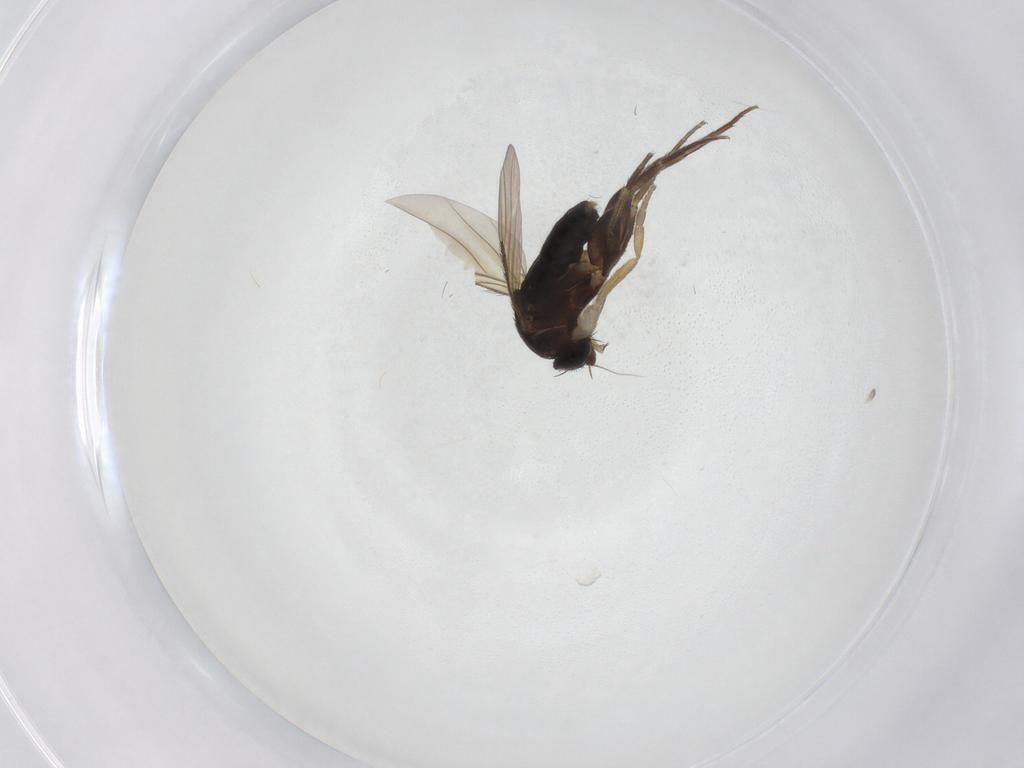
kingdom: Animalia
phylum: Arthropoda
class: Insecta
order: Diptera
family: Phoridae
